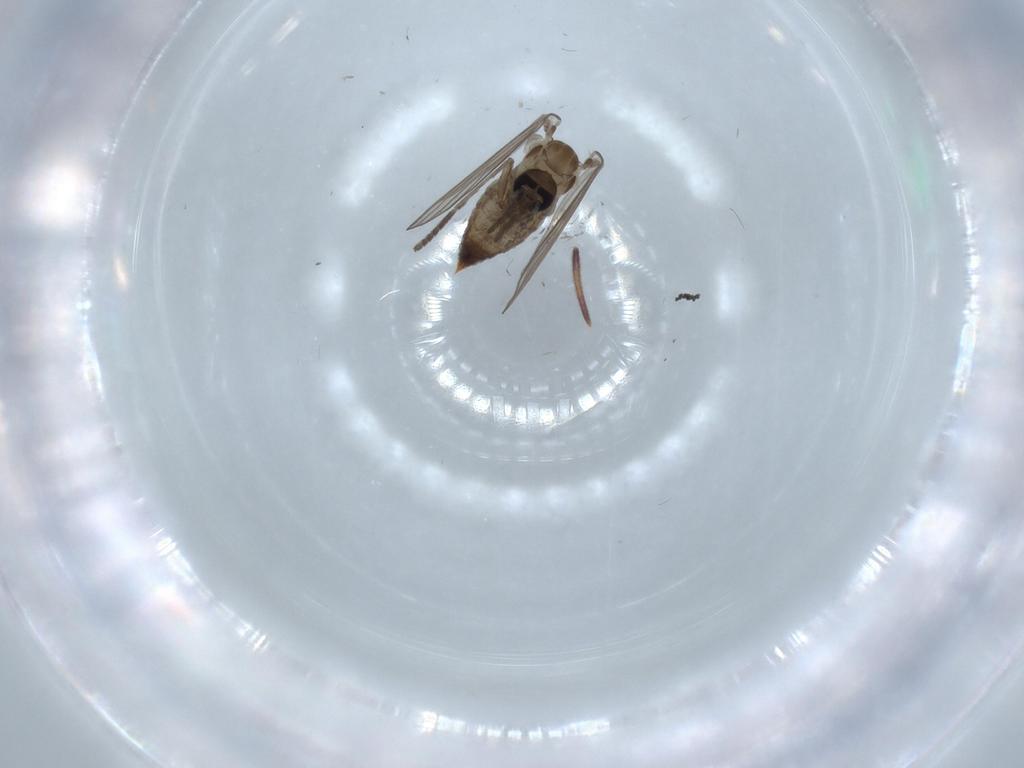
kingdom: Animalia
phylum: Arthropoda
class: Insecta
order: Diptera
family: Psychodidae
